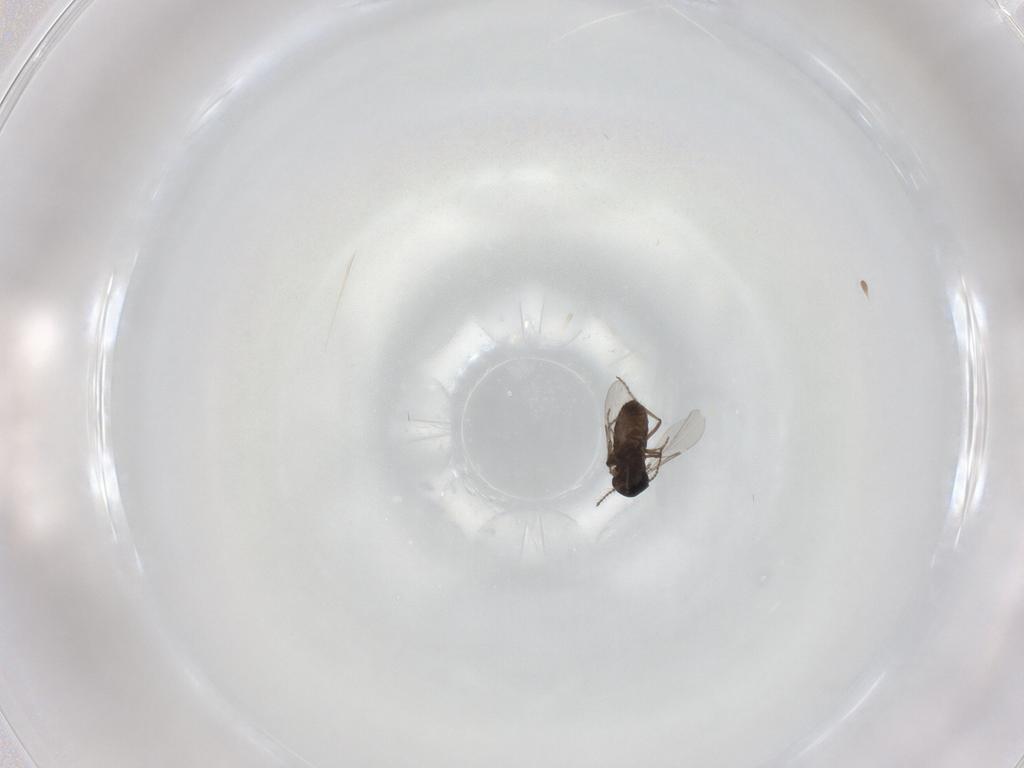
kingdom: Animalia
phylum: Arthropoda
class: Insecta
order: Diptera
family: Ceratopogonidae
